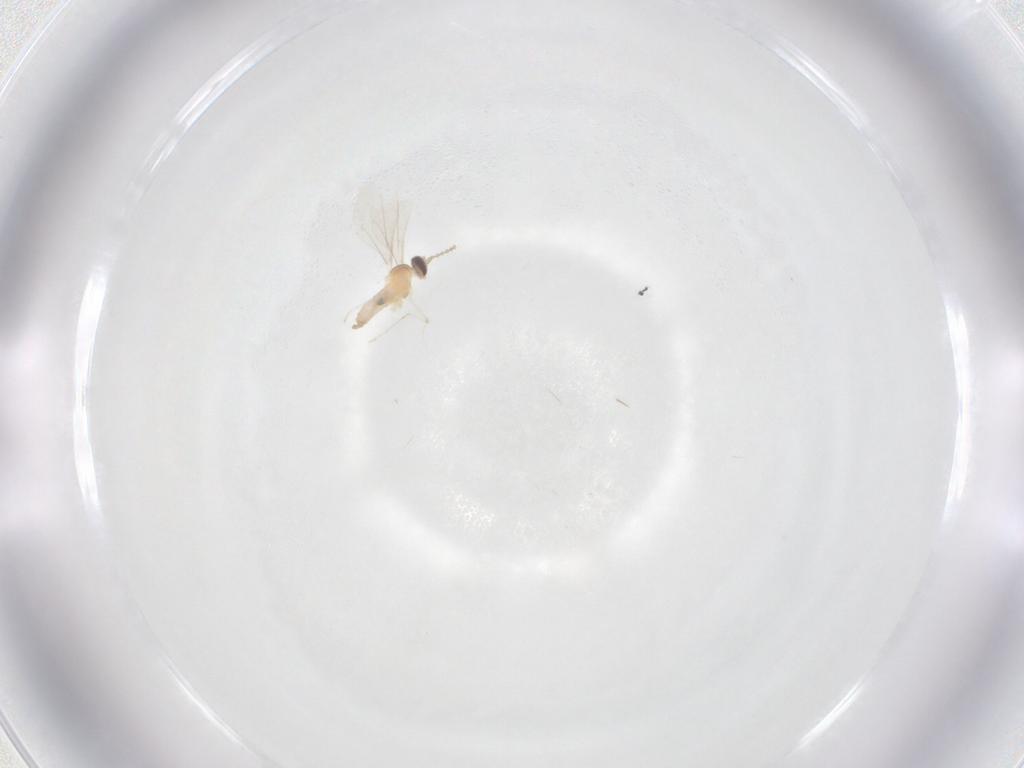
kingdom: Animalia
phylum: Arthropoda
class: Insecta
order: Diptera
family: Cecidomyiidae
